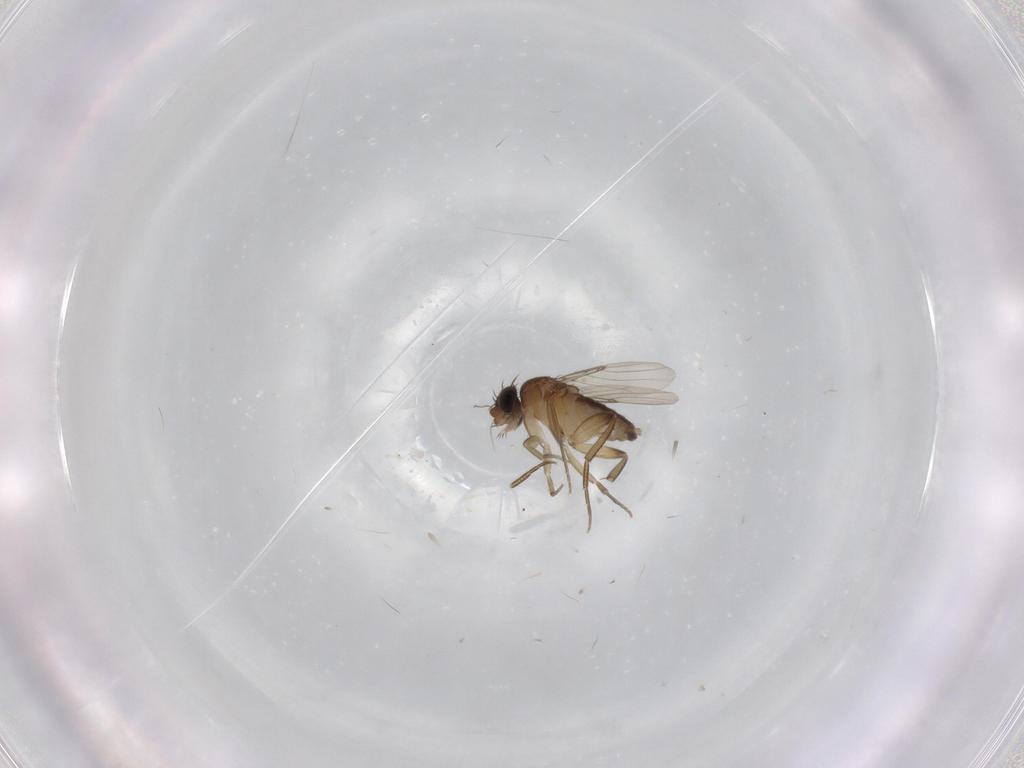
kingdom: Animalia
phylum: Arthropoda
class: Insecta
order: Diptera
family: Phoridae
